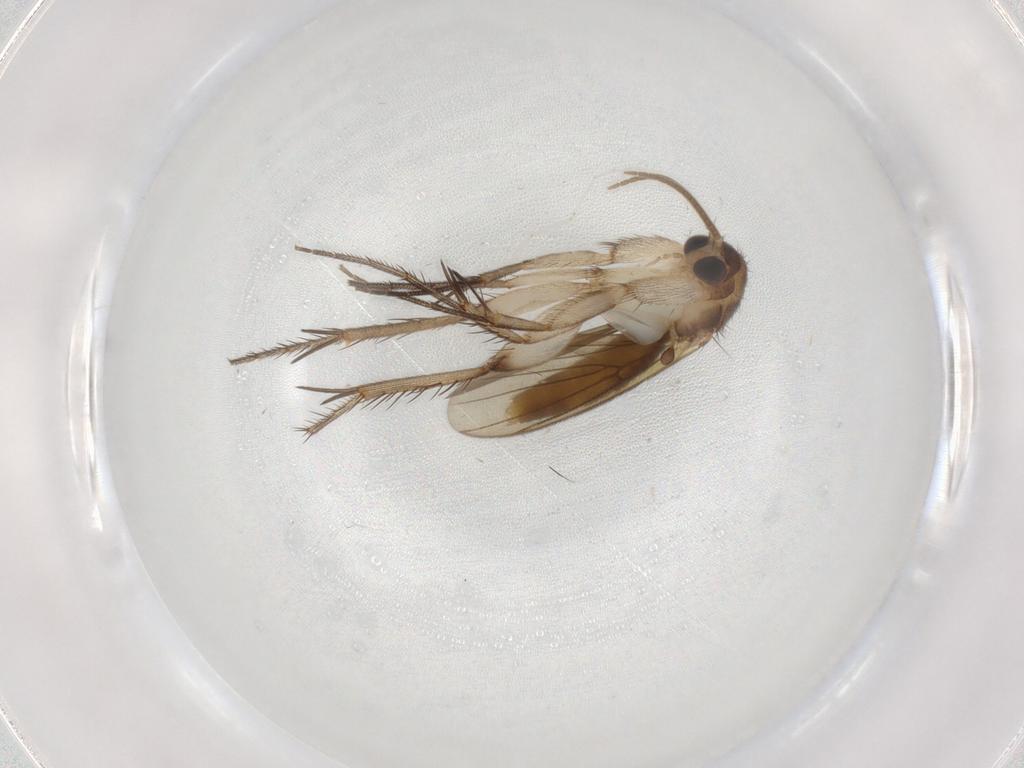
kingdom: Animalia
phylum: Arthropoda
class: Insecta
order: Diptera
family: Mycetophilidae
